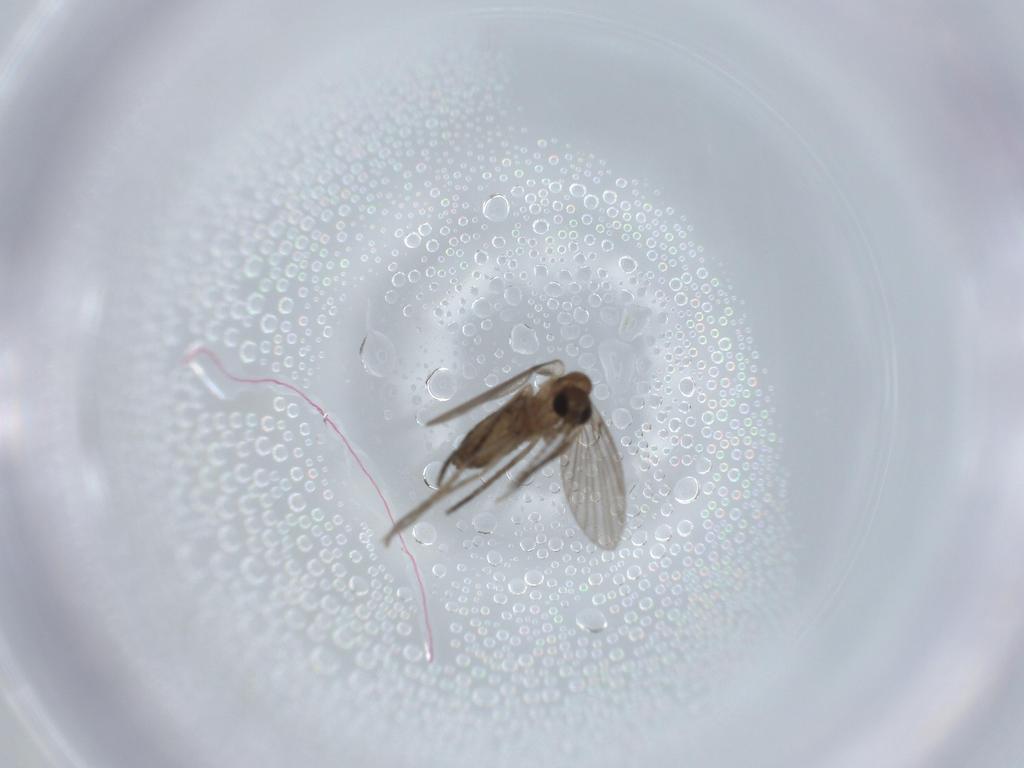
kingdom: Animalia
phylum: Arthropoda
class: Insecta
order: Diptera
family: Psychodidae
